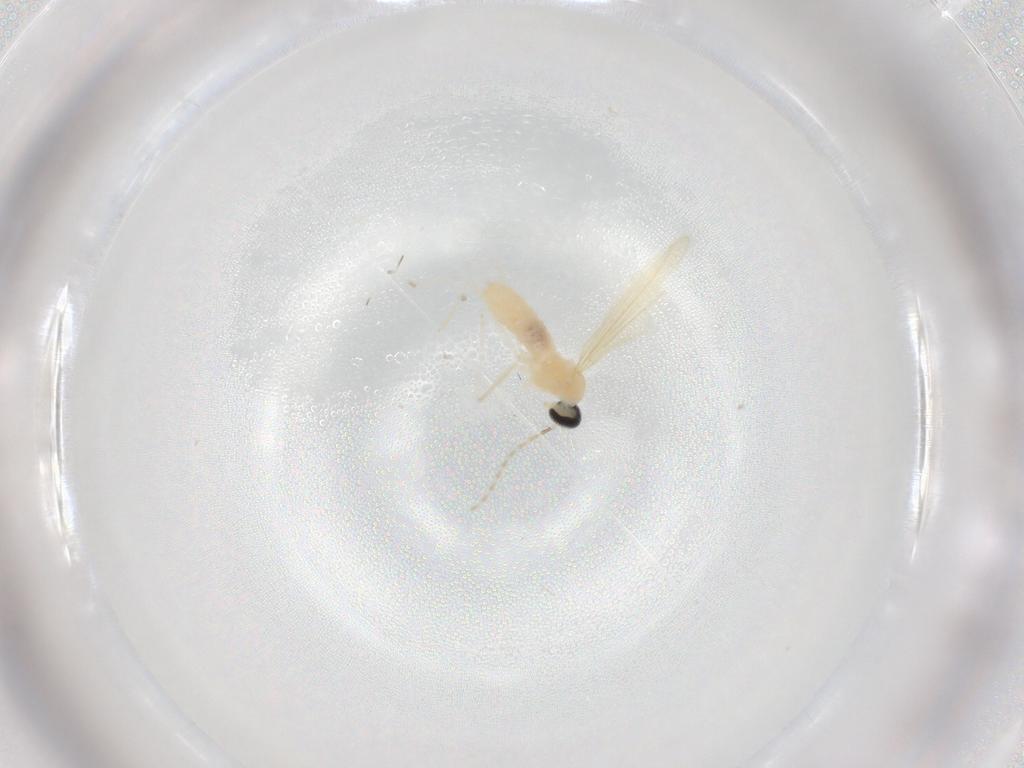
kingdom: Animalia
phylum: Arthropoda
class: Insecta
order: Diptera
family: Cecidomyiidae
